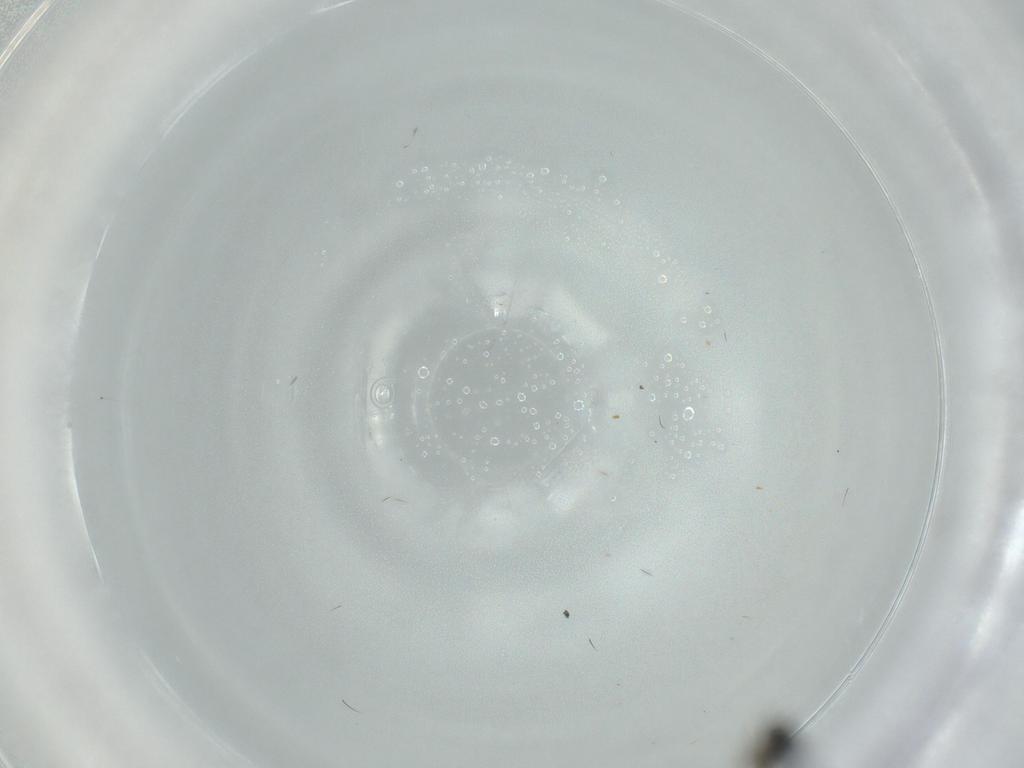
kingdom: Animalia
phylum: Arthropoda
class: Insecta
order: Hymenoptera
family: Scelionidae
